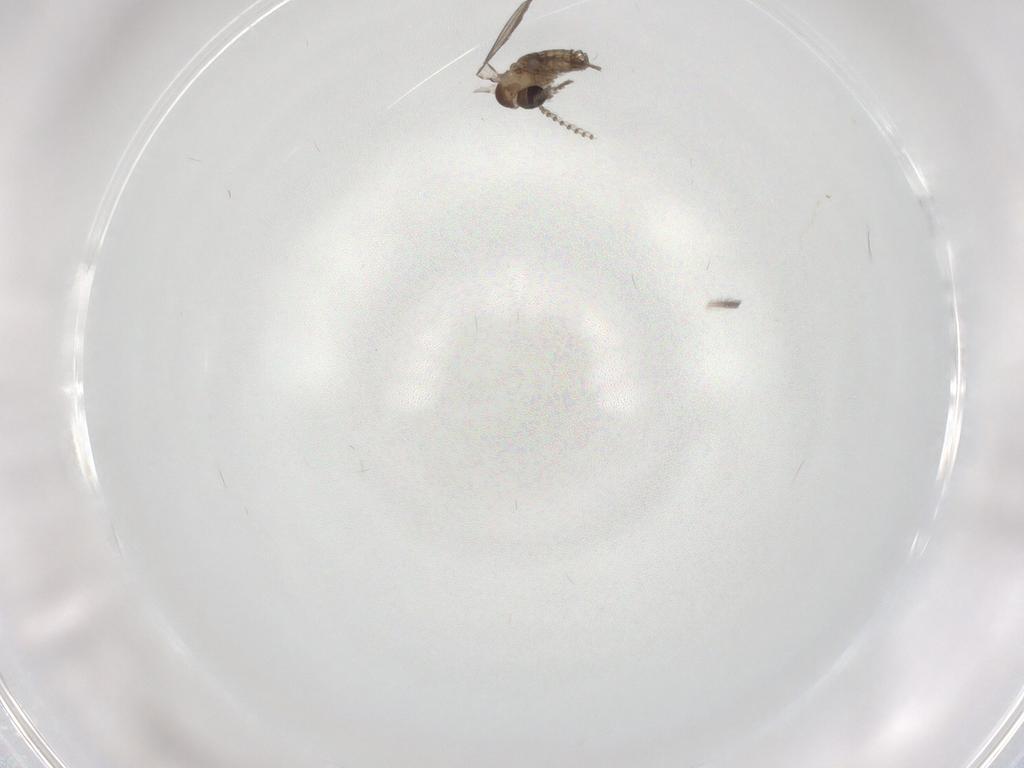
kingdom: Animalia
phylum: Arthropoda
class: Insecta
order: Diptera
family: Psychodidae
